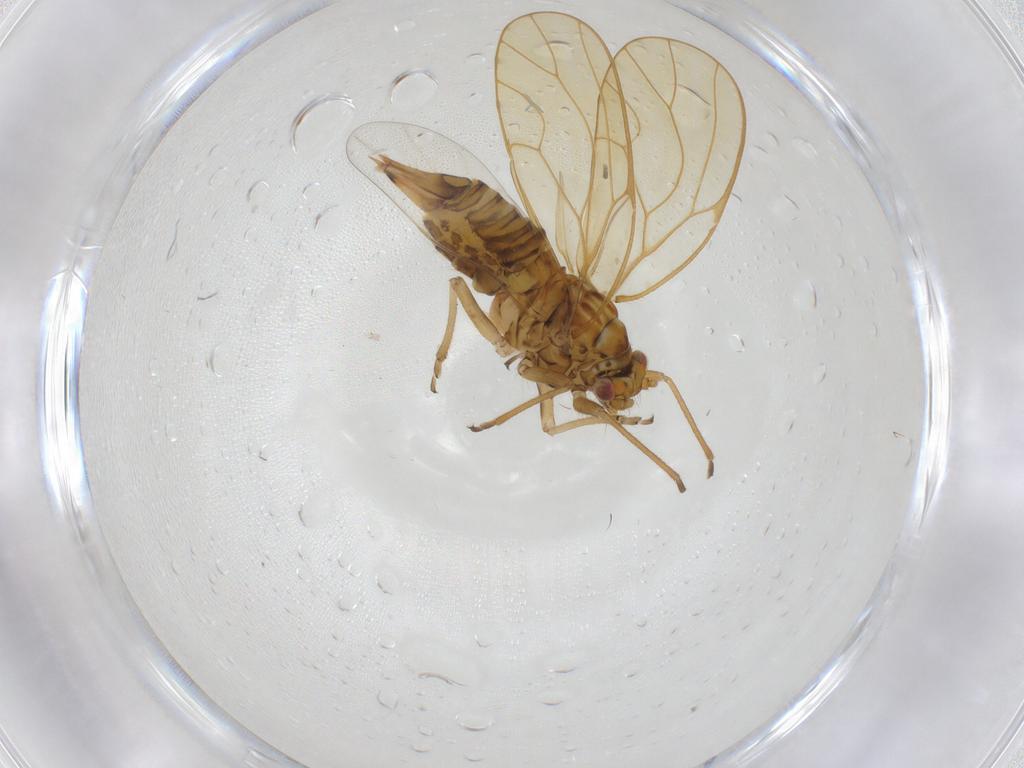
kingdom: Animalia
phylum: Arthropoda
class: Insecta
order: Hemiptera
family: Psyllidae
